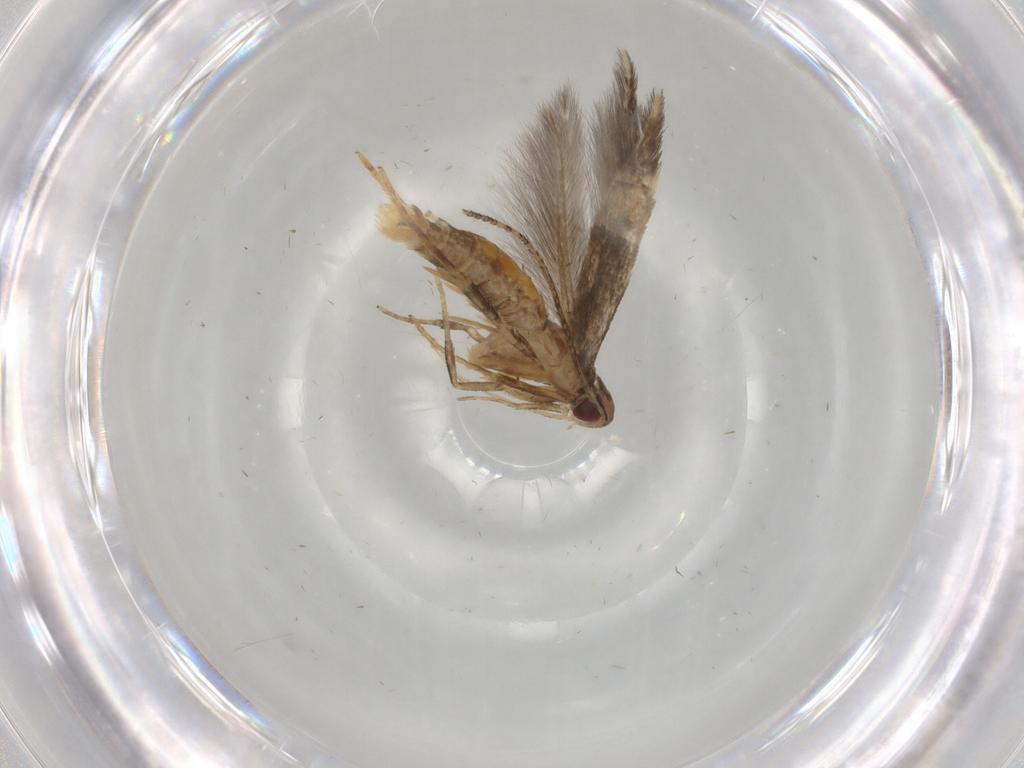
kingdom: Animalia
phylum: Arthropoda
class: Insecta
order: Lepidoptera
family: Cosmopterigidae
